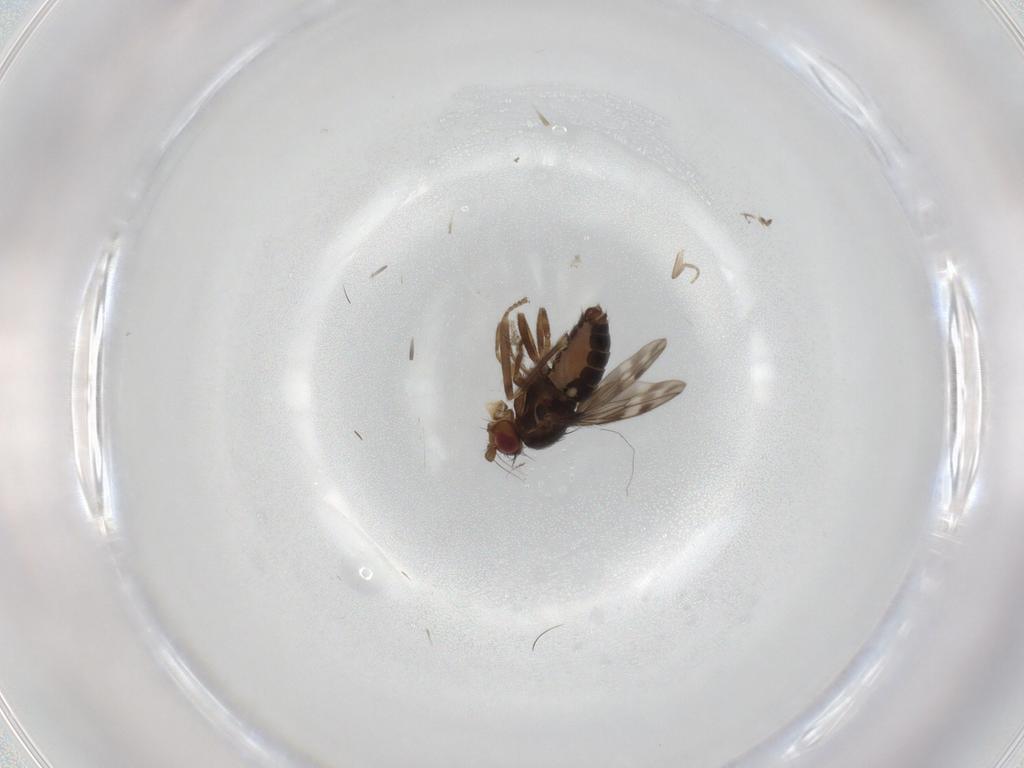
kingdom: Animalia
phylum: Arthropoda
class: Insecta
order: Diptera
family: Sphaeroceridae
